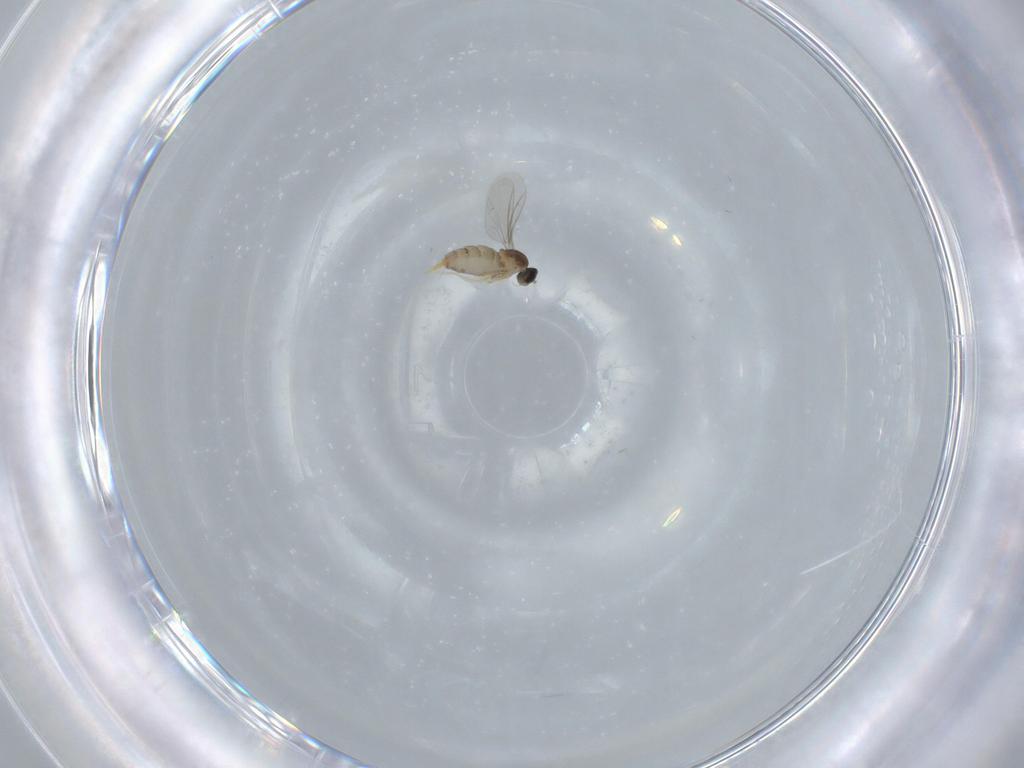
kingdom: Animalia
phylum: Arthropoda
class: Insecta
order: Diptera
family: Cecidomyiidae
